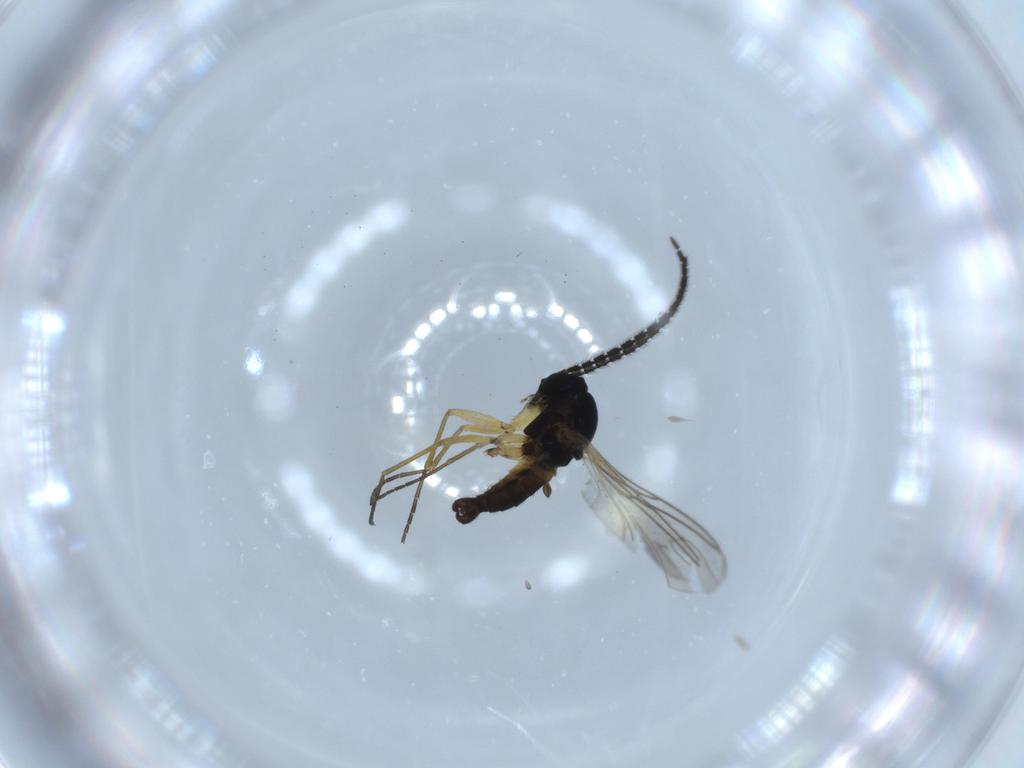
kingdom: Animalia
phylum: Arthropoda
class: Insecta
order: Diptera
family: Sciaridae
